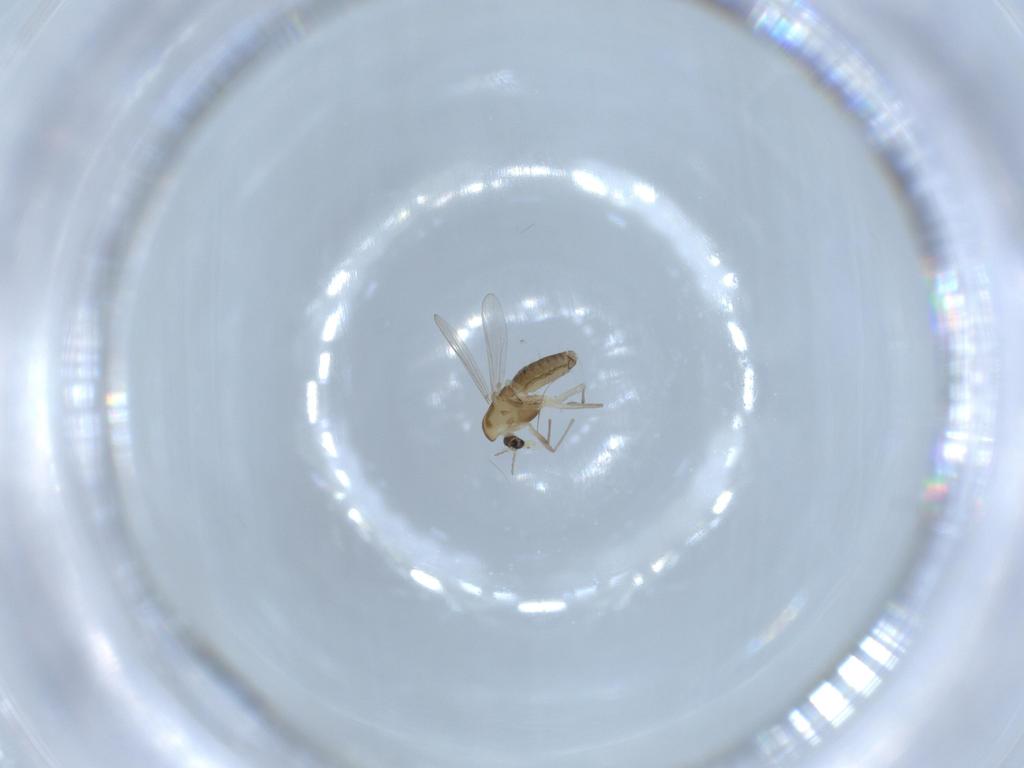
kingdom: Animalia
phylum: Arthropoda
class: Insecta
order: Diptera
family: Chironomidae
